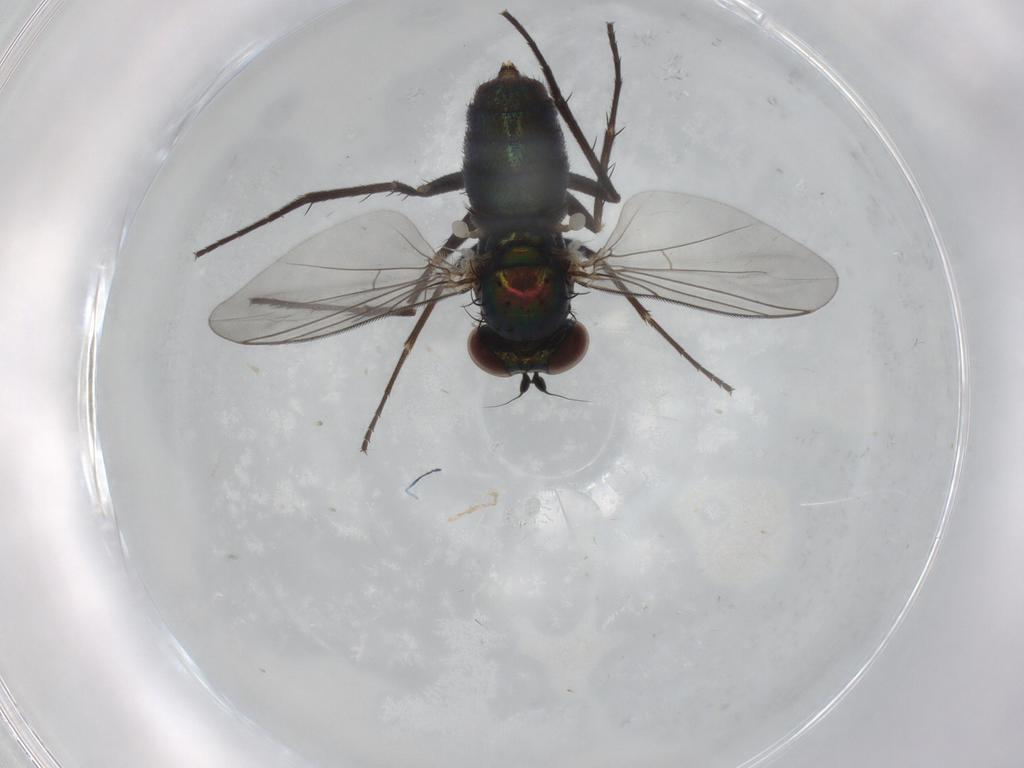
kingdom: Animalia
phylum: Arthropoda
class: Insecta
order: Diptera
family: Dolichopodidae
